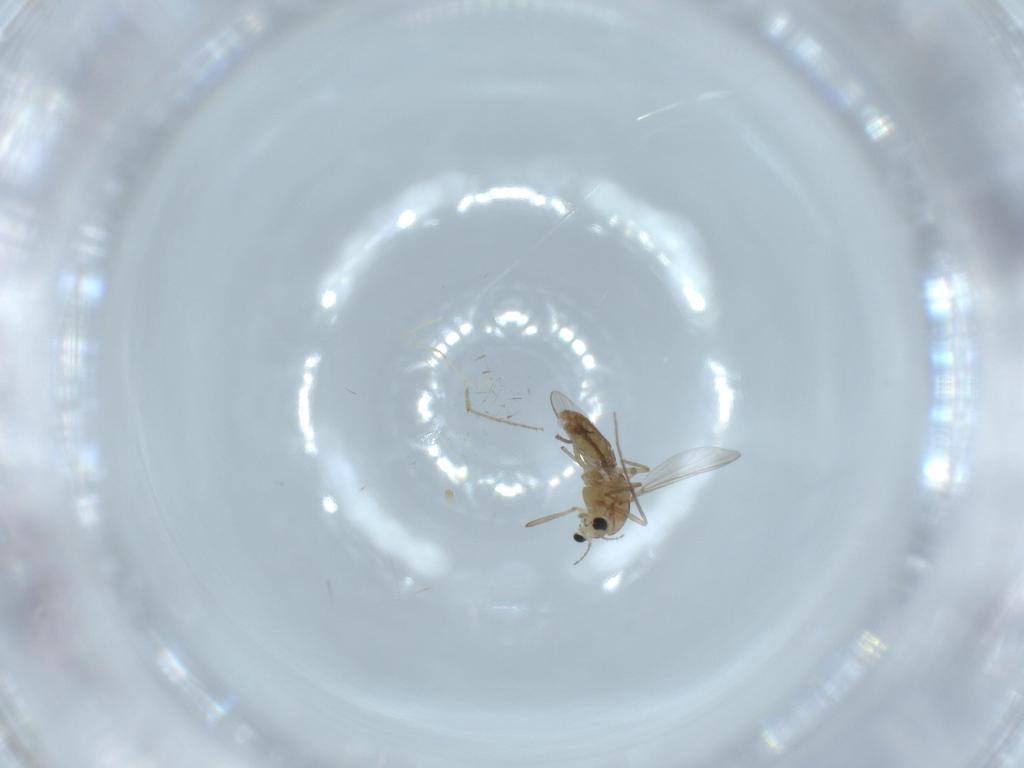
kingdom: Animalia
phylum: Arthropoda
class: Insecta
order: Diptera
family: Chironomidae
